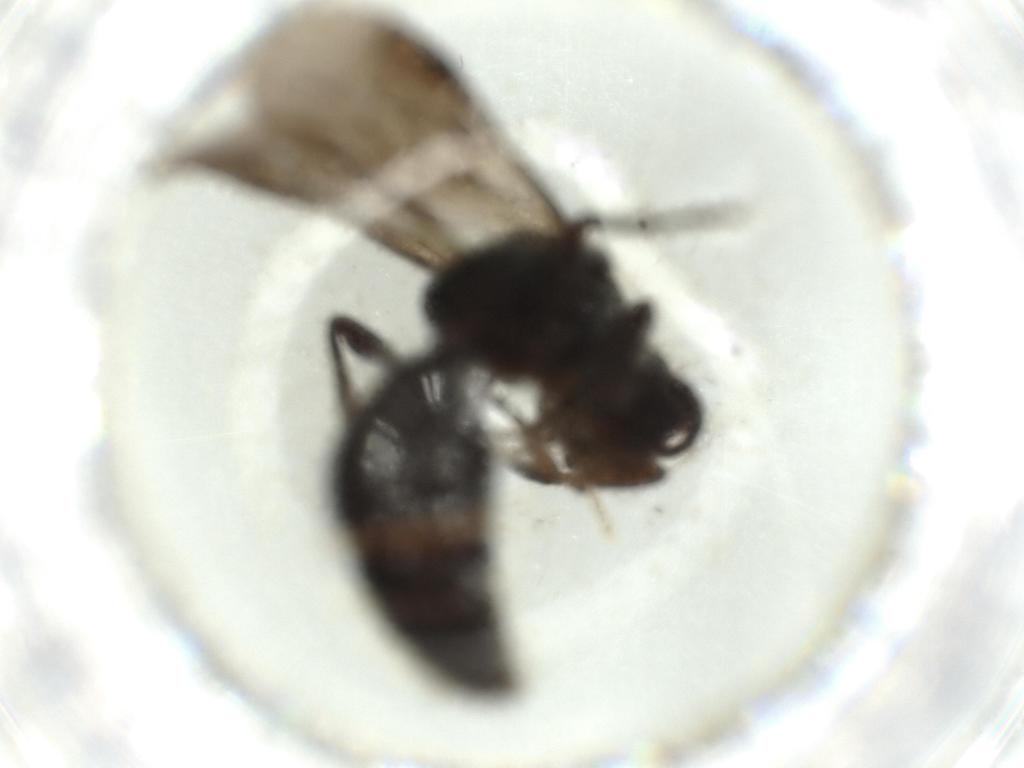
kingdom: Animalia
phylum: Arthropoda
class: Insecta
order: Hymenoptera
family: Mutillidae
